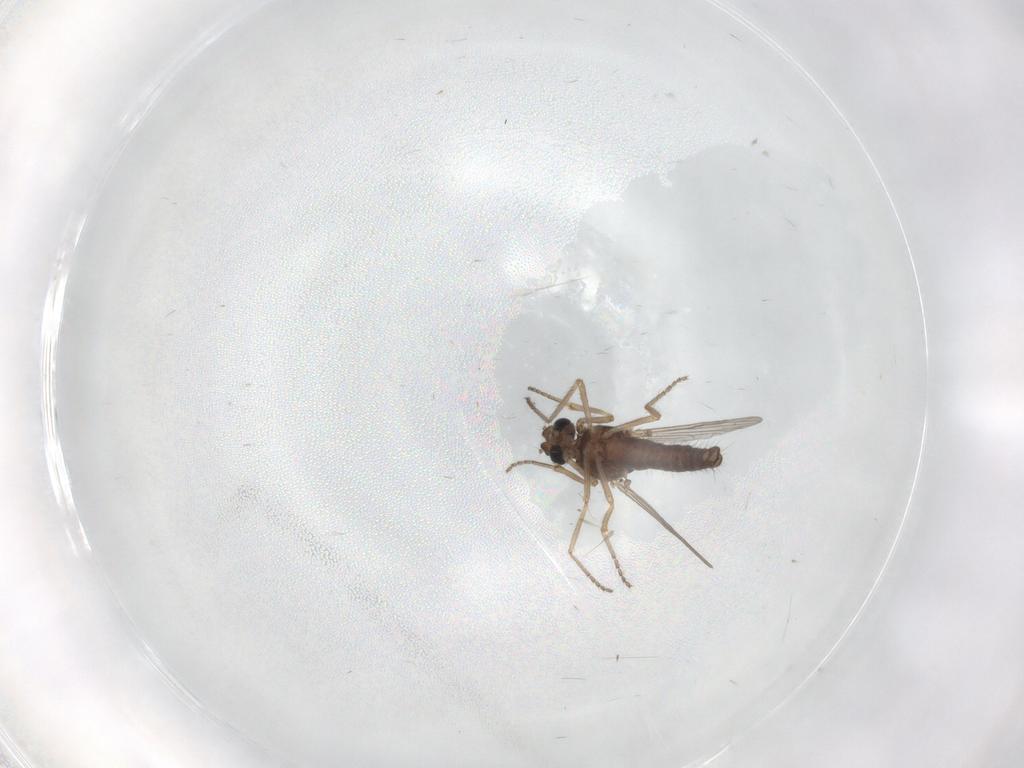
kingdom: Animalia
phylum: Arthropoda
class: Insecta
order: Diptera
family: Ceratopogonidae
